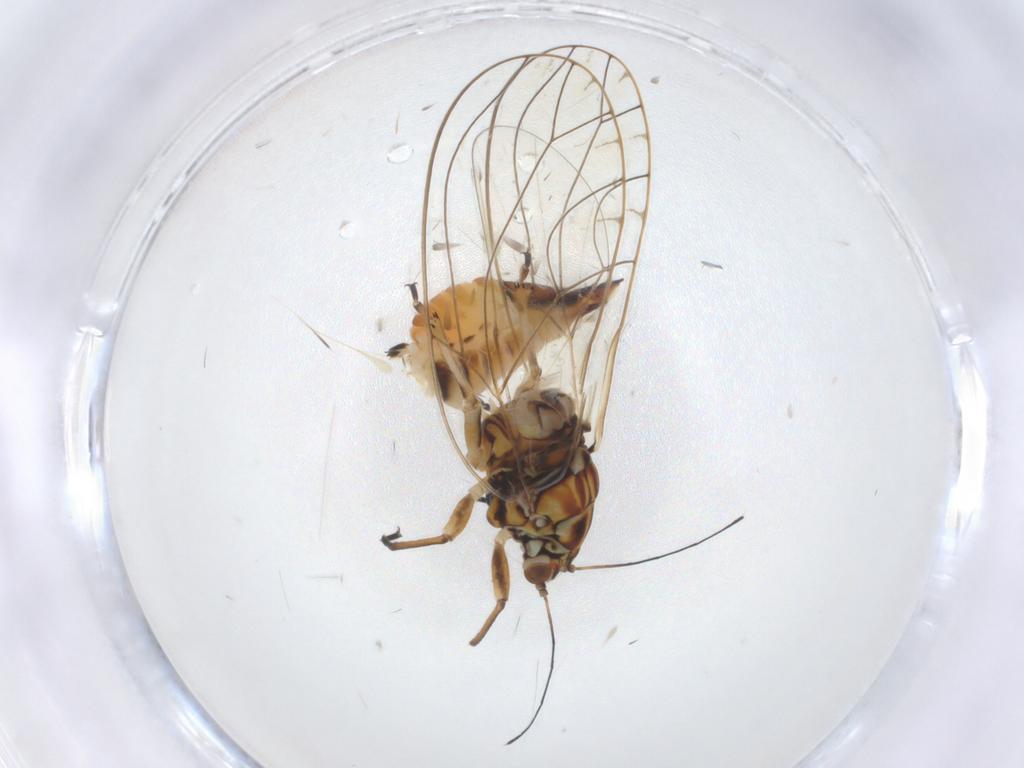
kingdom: Animalia
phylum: Arthropoda
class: Insecta
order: Hemiptera
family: Triozidae
